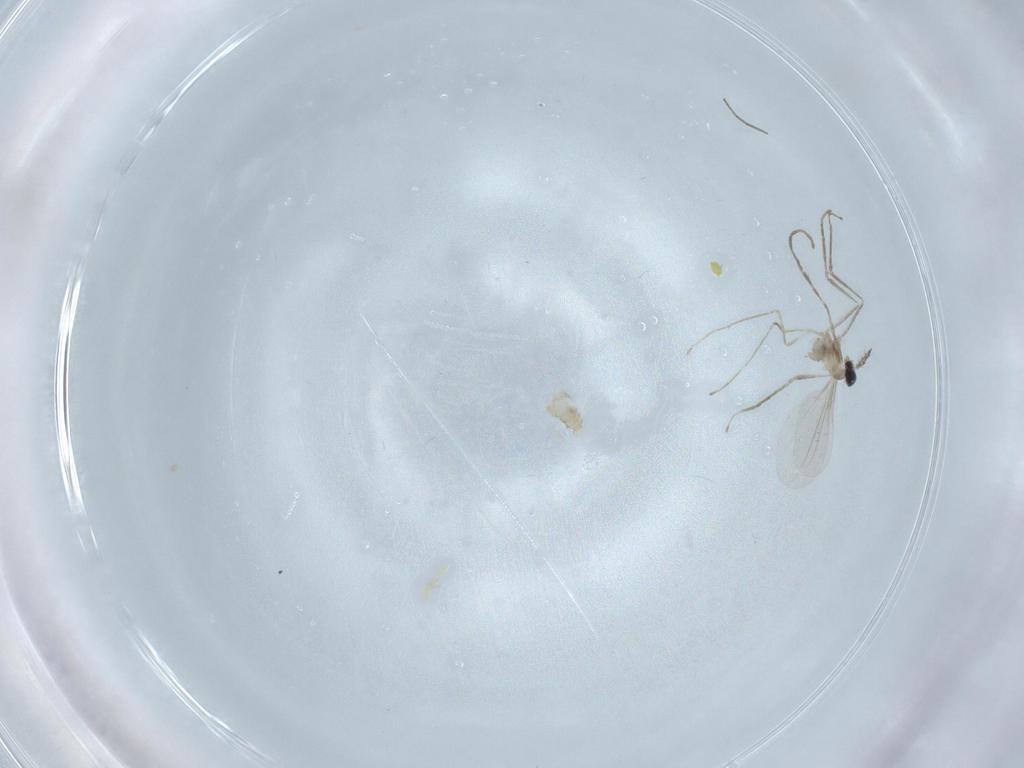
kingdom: Animalia
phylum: Arthropoda
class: Insecta
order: Diptera
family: Chironomidae
